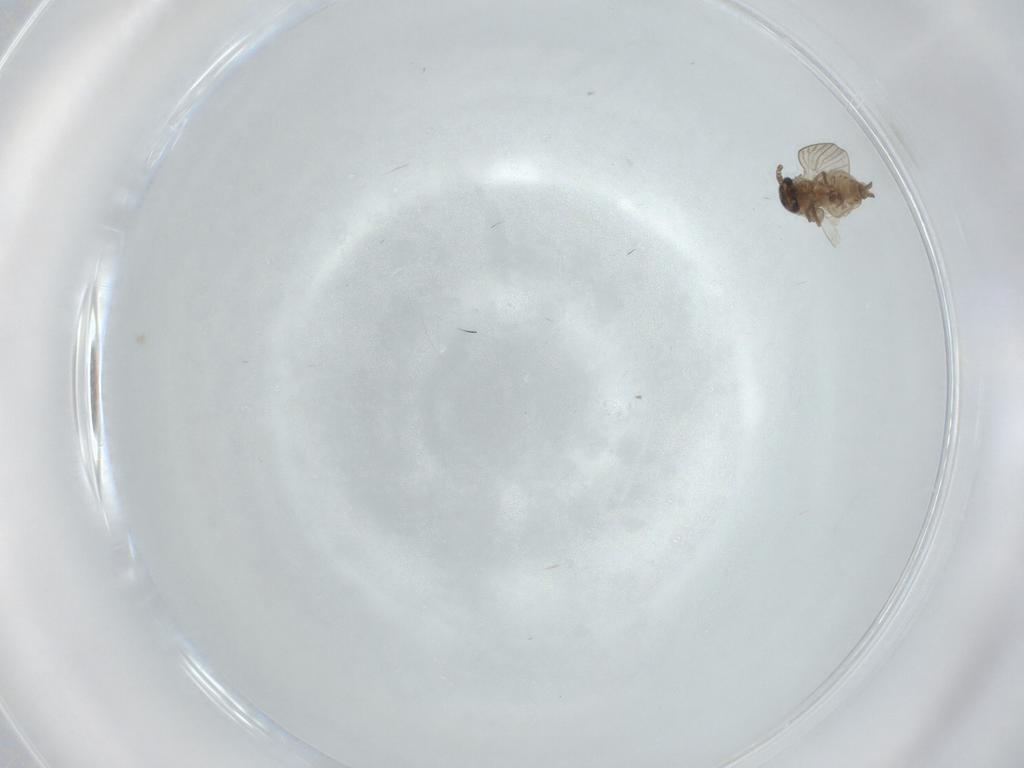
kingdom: Animalia
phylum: Arthropoda
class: Insecta
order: Diptera
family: Psychodidae
